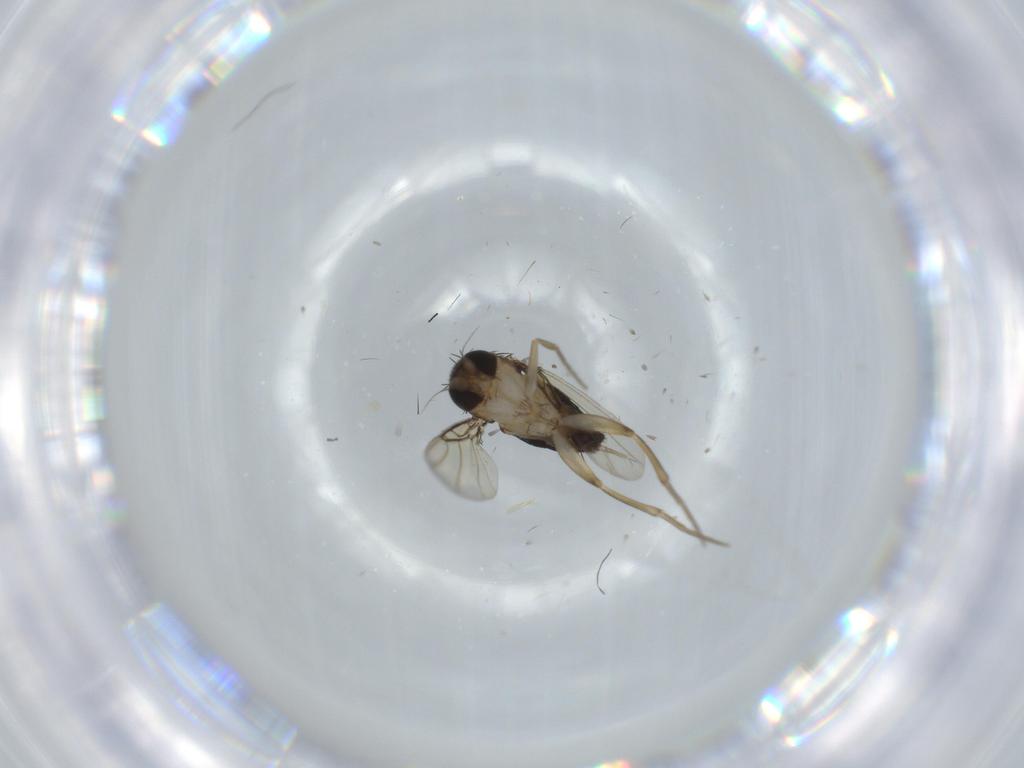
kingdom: Animalia
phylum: Arthropoda
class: Insecta
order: Diptera
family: Phoridae
